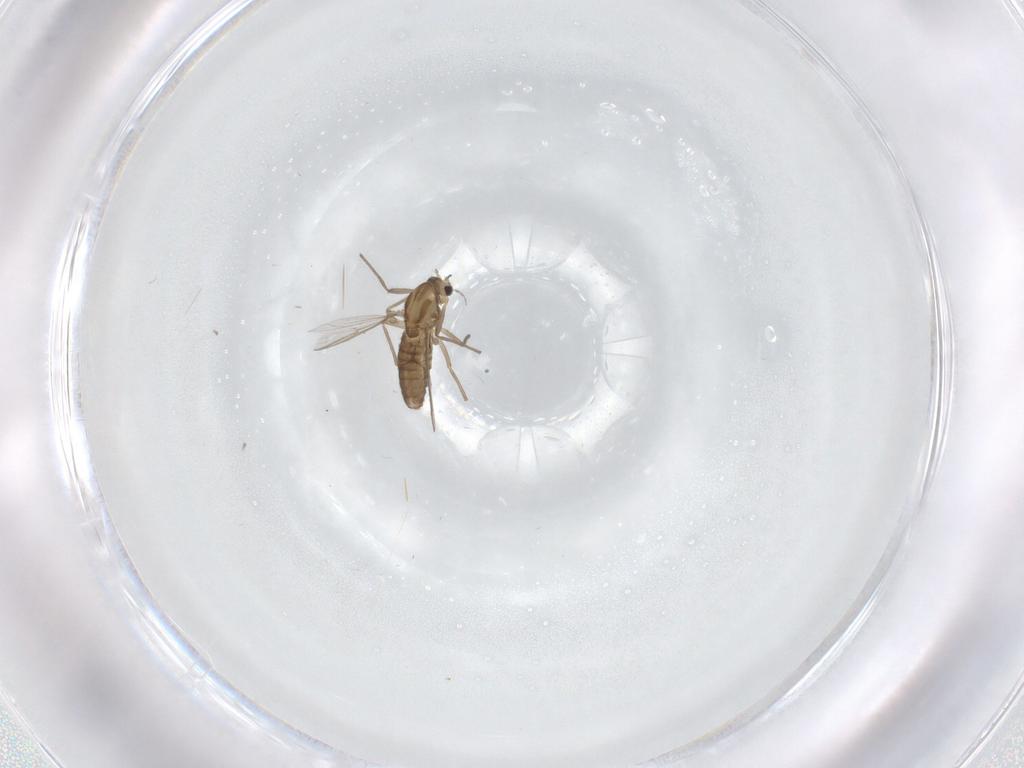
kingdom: Animalia
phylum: Arthropoda
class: Insecta
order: Diptera
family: Chironomidae
